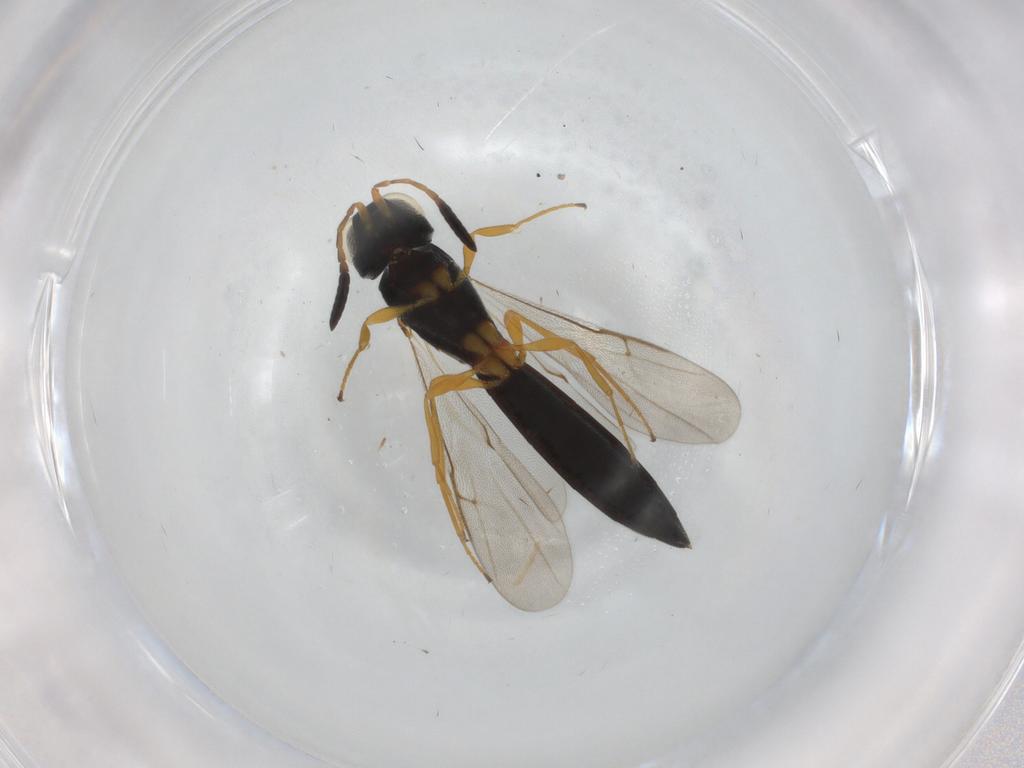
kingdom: Animalia
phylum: Arthropoda
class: Insecta
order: Hymenoptera
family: Scelionidae
